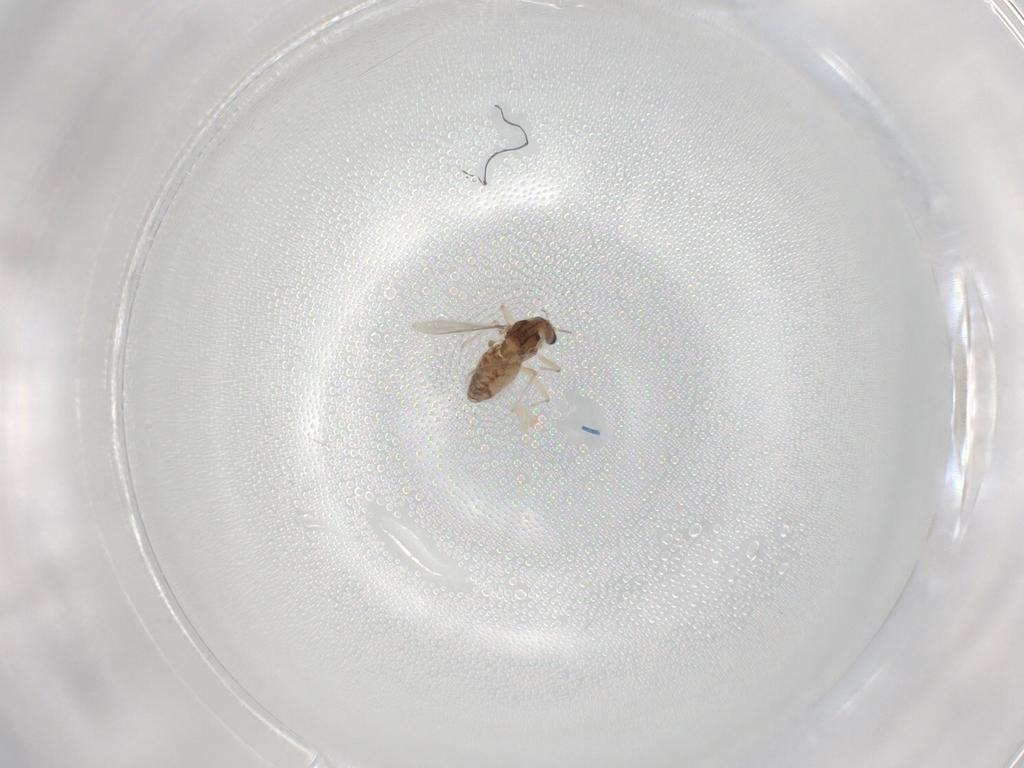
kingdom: Animalia
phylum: Arthropoda
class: Insecta
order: Diptera
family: Chironomidae
